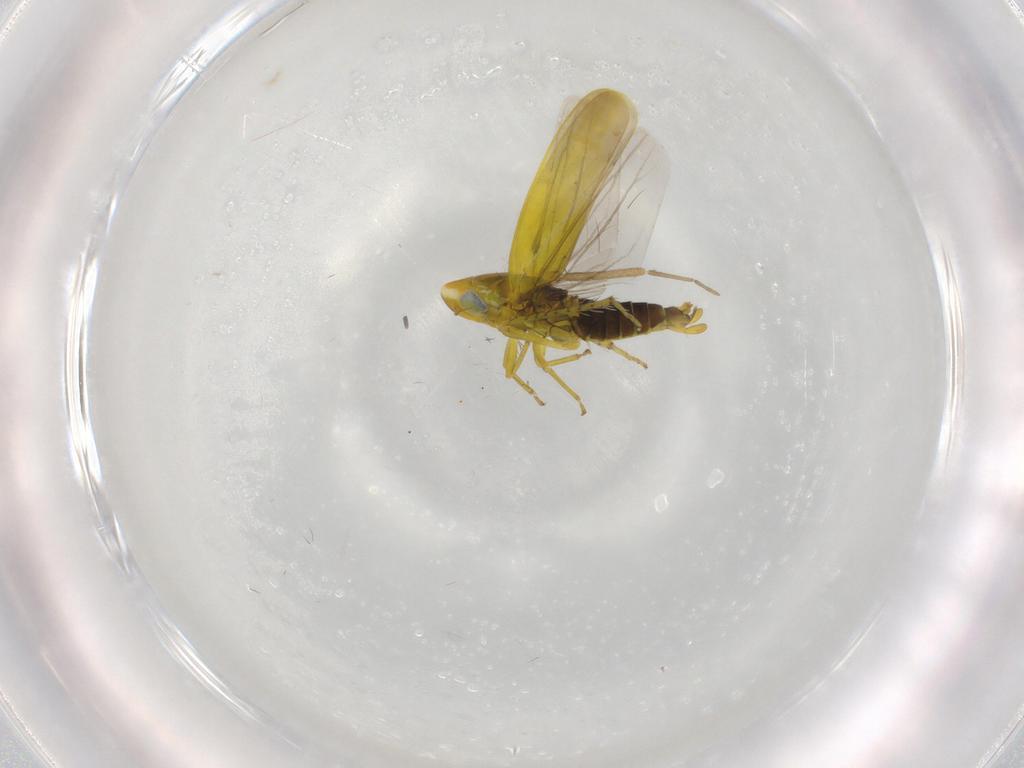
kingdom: Animalia
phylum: Arthropoda
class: Insecta
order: Hemiptera
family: Cicadellidae
